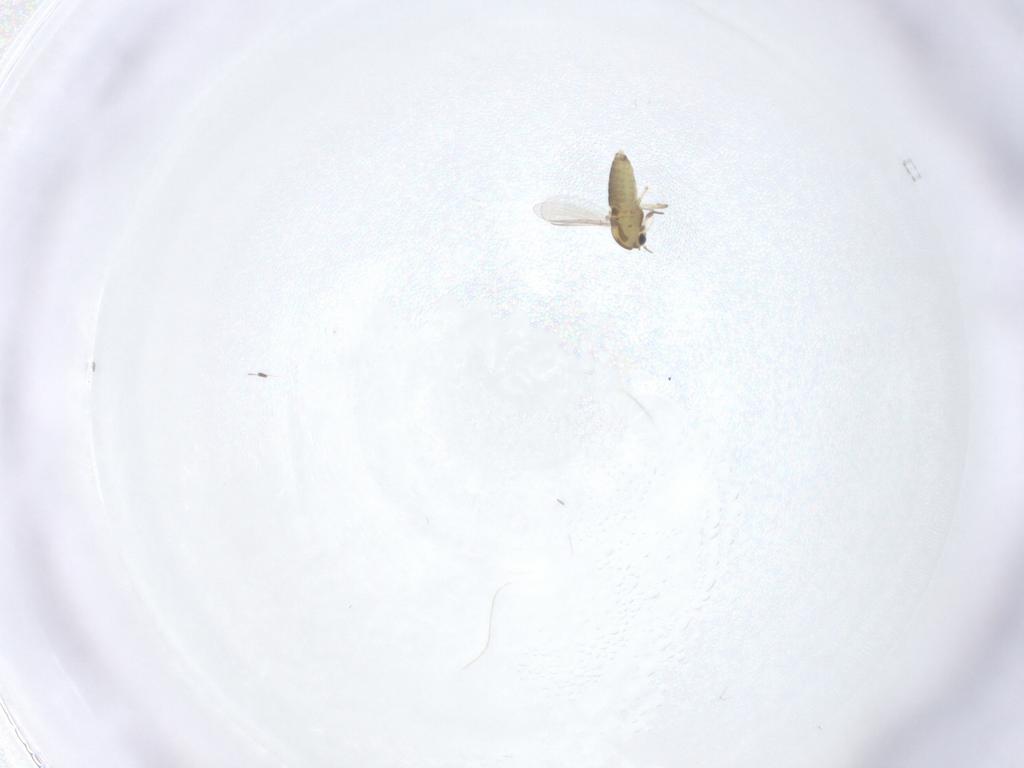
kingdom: Animalia
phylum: Arthropoda
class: Insecta
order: Diptera
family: Chironomidae
